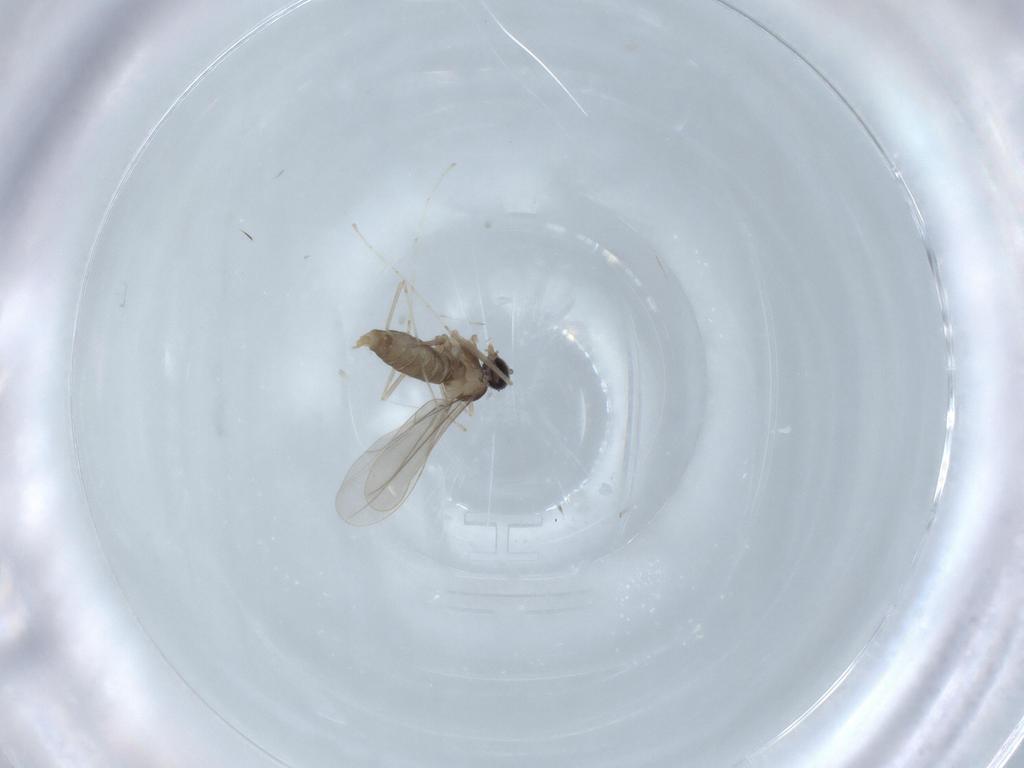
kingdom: Animalia
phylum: Arthropoda
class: Insecta
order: Diptera
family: Cecidomyiidae
